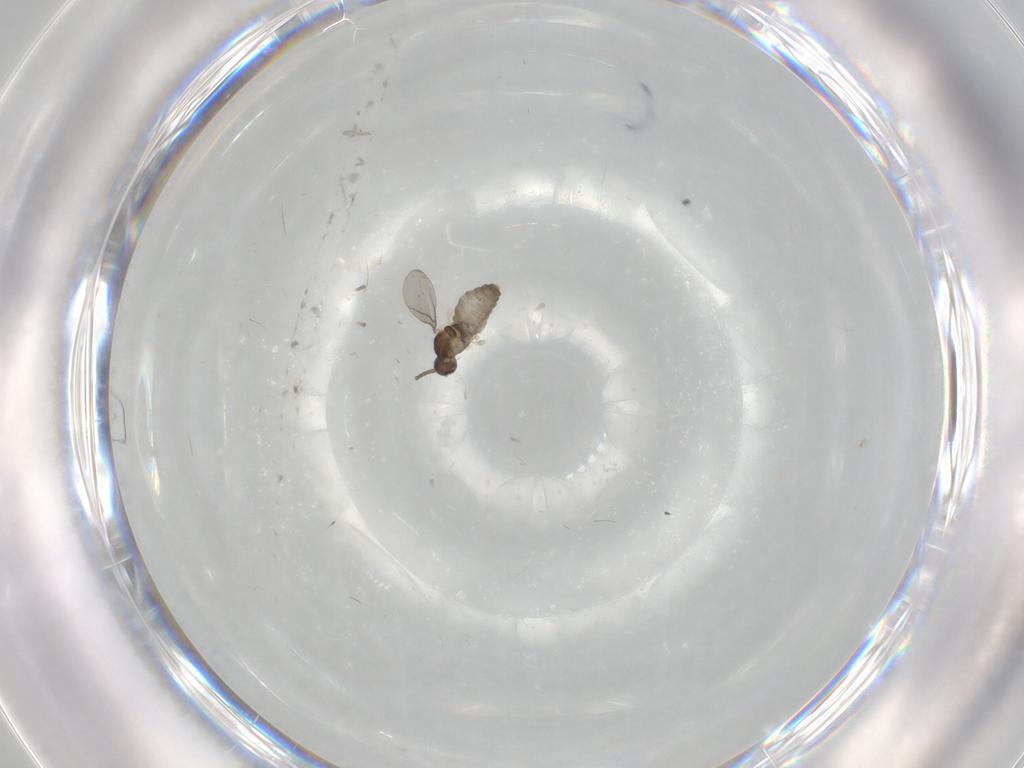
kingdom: Animalia
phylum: Arthropoda
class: Insecta
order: Diptera
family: Cecidomyiidae
